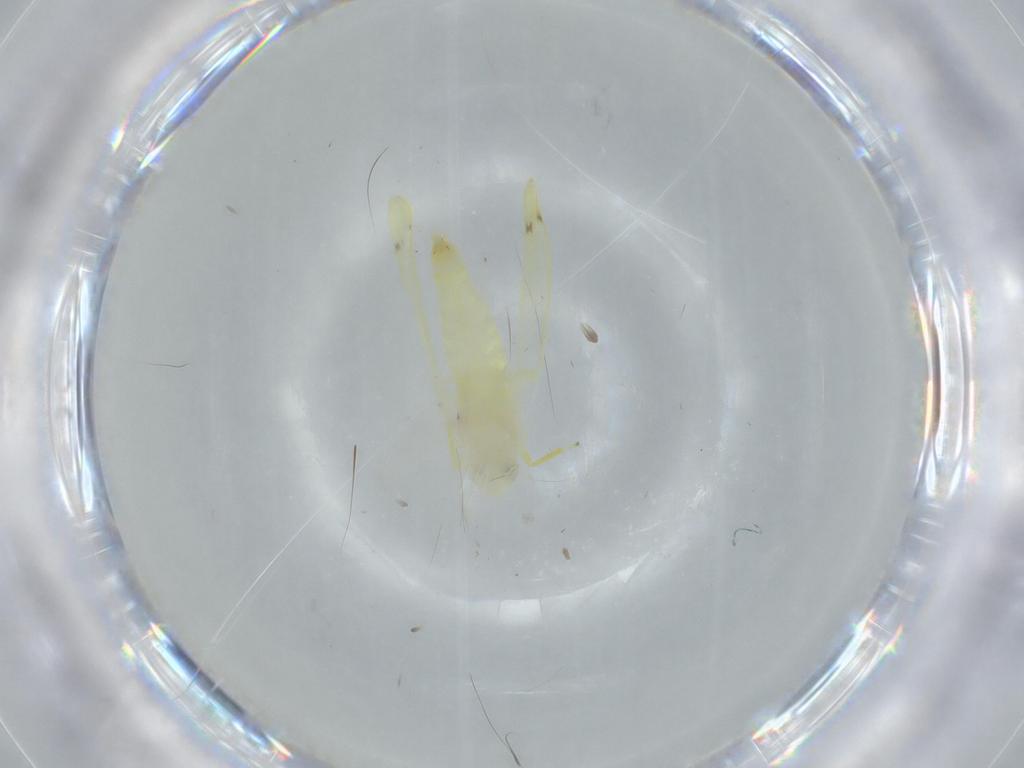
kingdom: Animalia
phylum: Arthropoda
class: Insecta
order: Hemiptera
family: Cicadellidae
